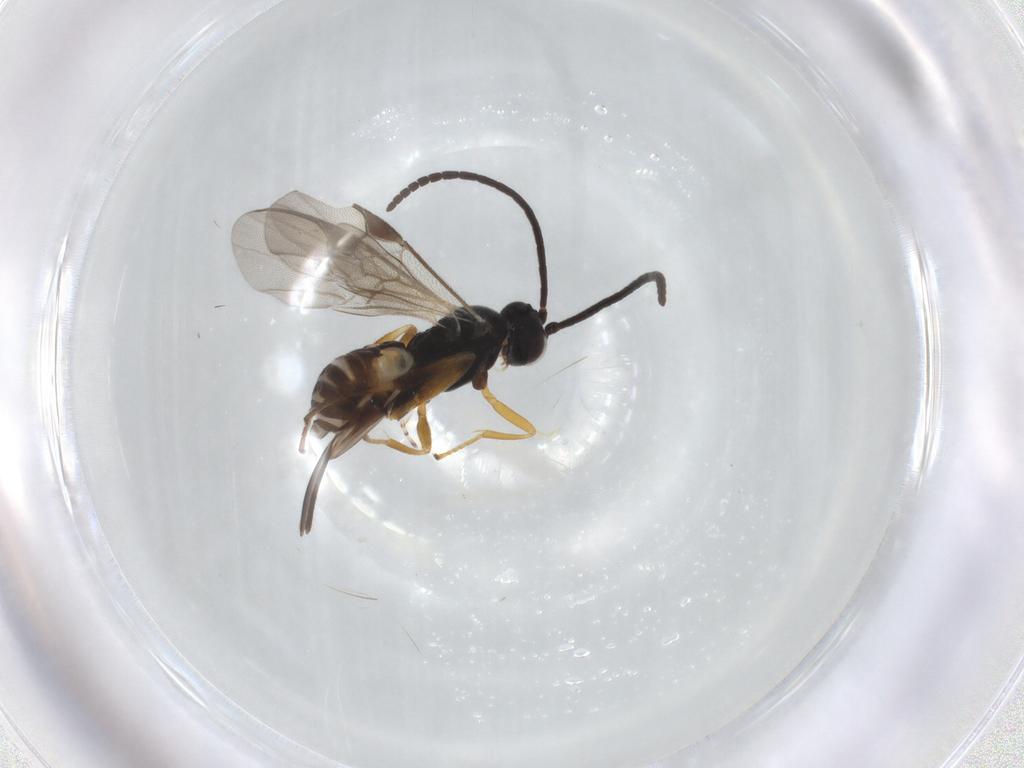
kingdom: Animalia
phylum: Arthropoda
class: Insecta
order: Hymenoptera
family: Braconidae
